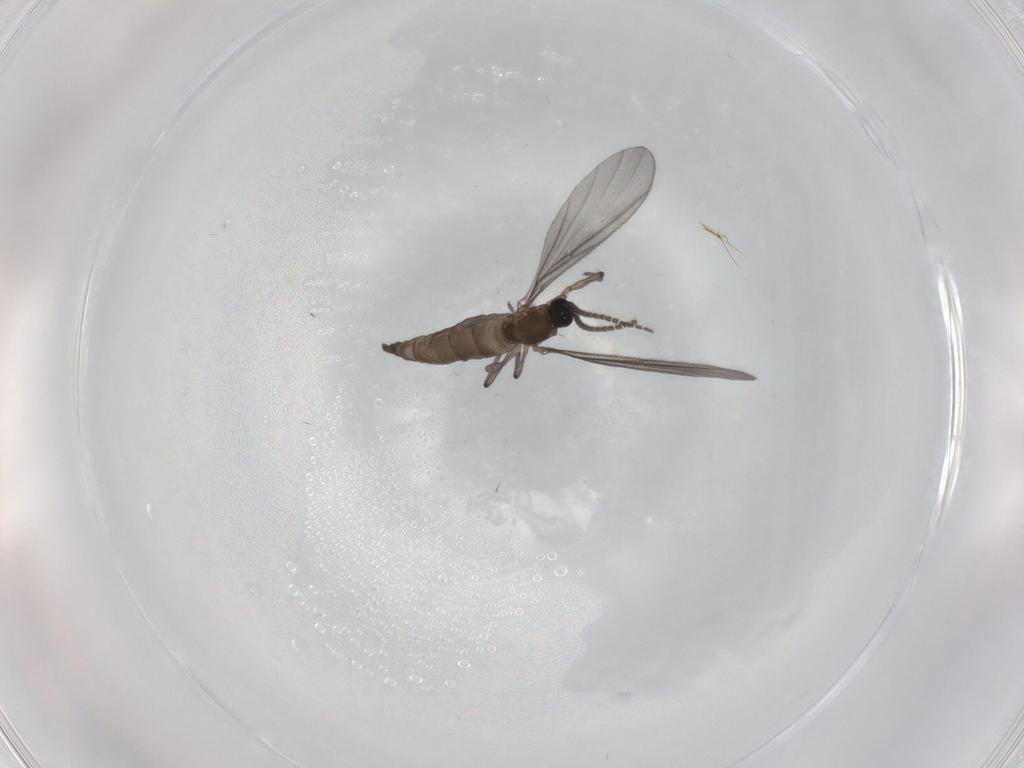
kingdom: Animalia
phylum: Arthropoda
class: Insecta
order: Diptera
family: Sciaridae
